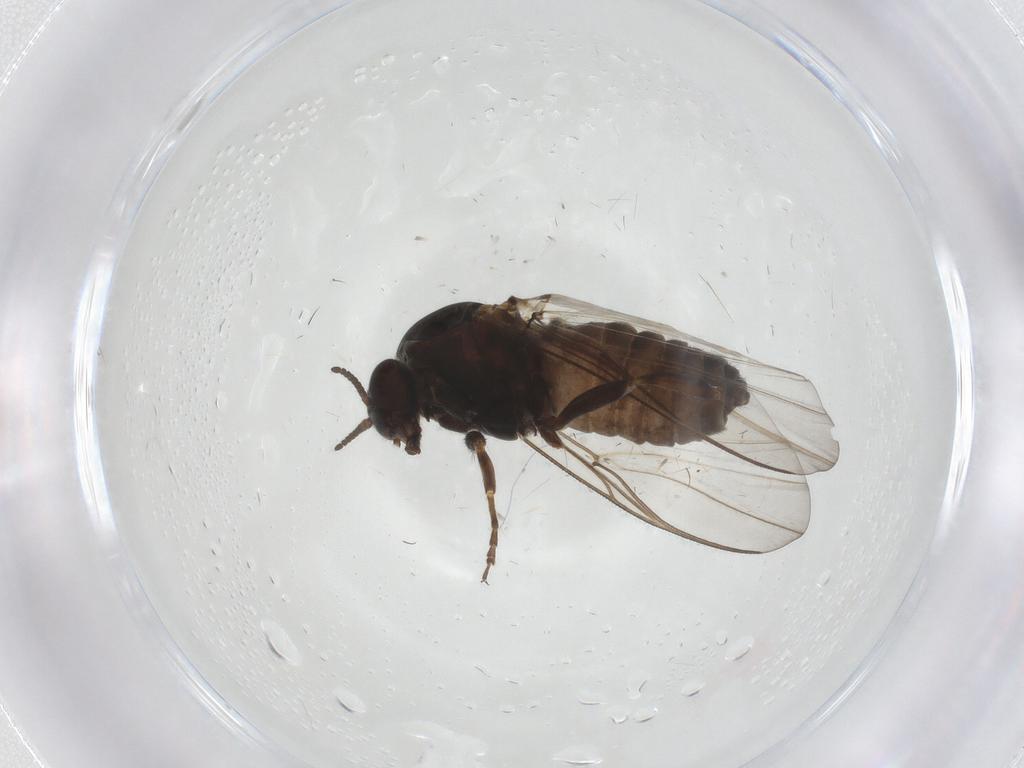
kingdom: Animalia
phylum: Arthropoda
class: Insecta
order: Diptera
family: Simuliidae
